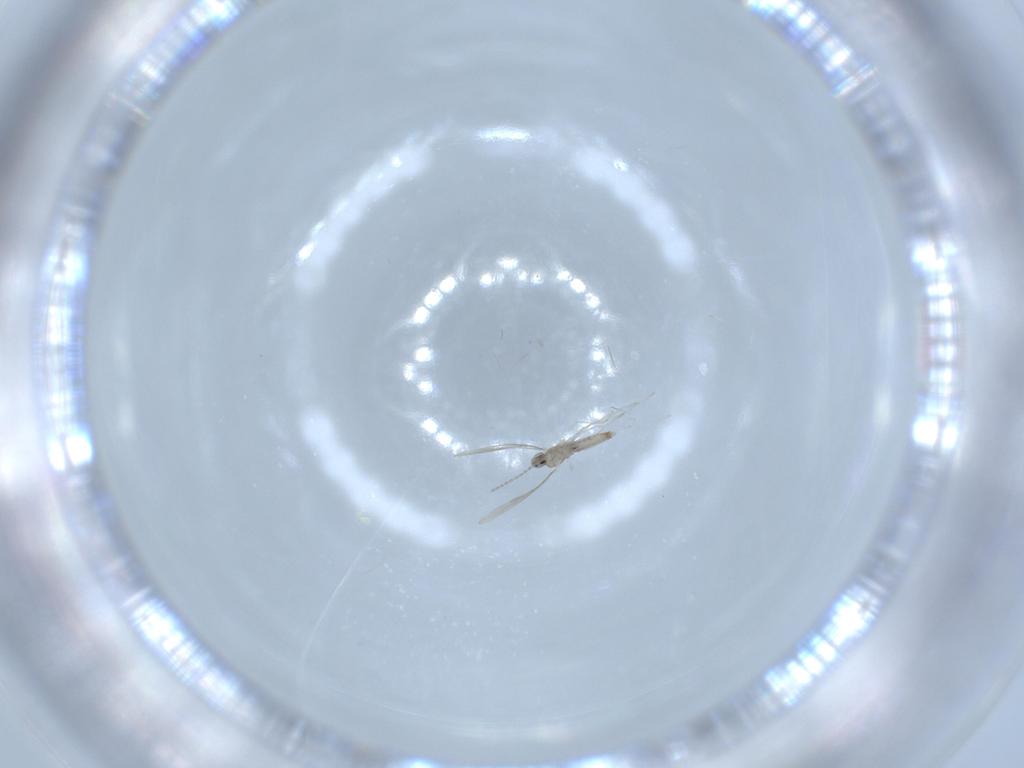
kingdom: Animalia
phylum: Arthropoda
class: Insecta
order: Diptera
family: Cecidomyiidae
